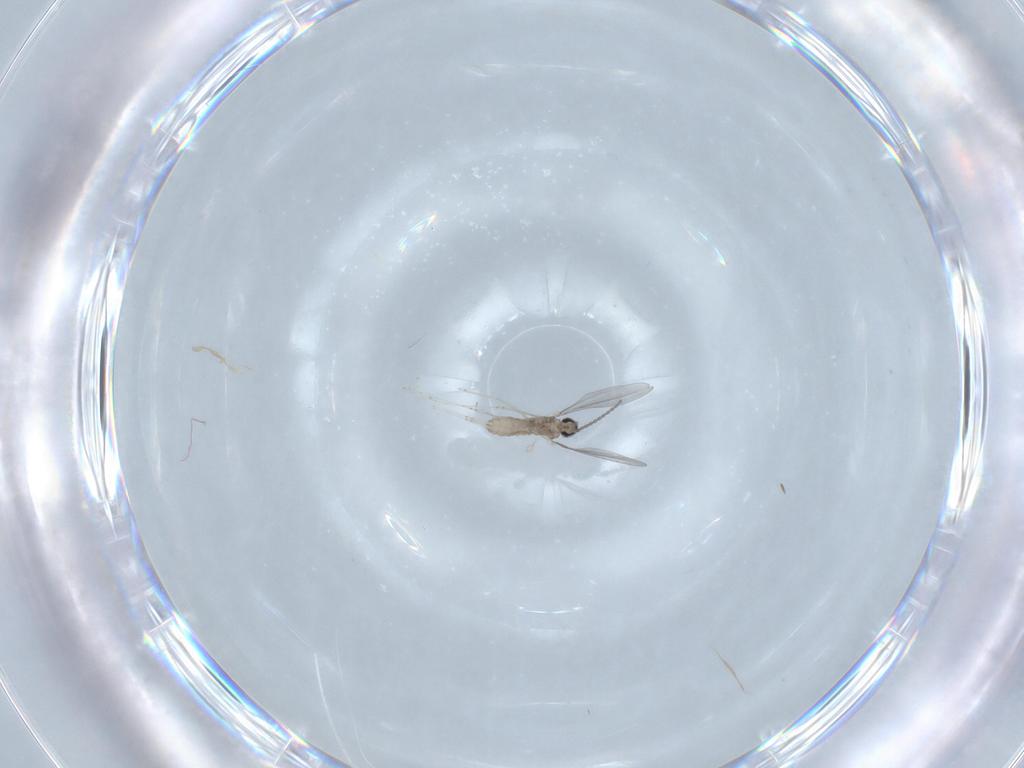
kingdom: Animalia
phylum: Arthropoda
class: Insecta
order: Diptera
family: Cecidomyiidae
